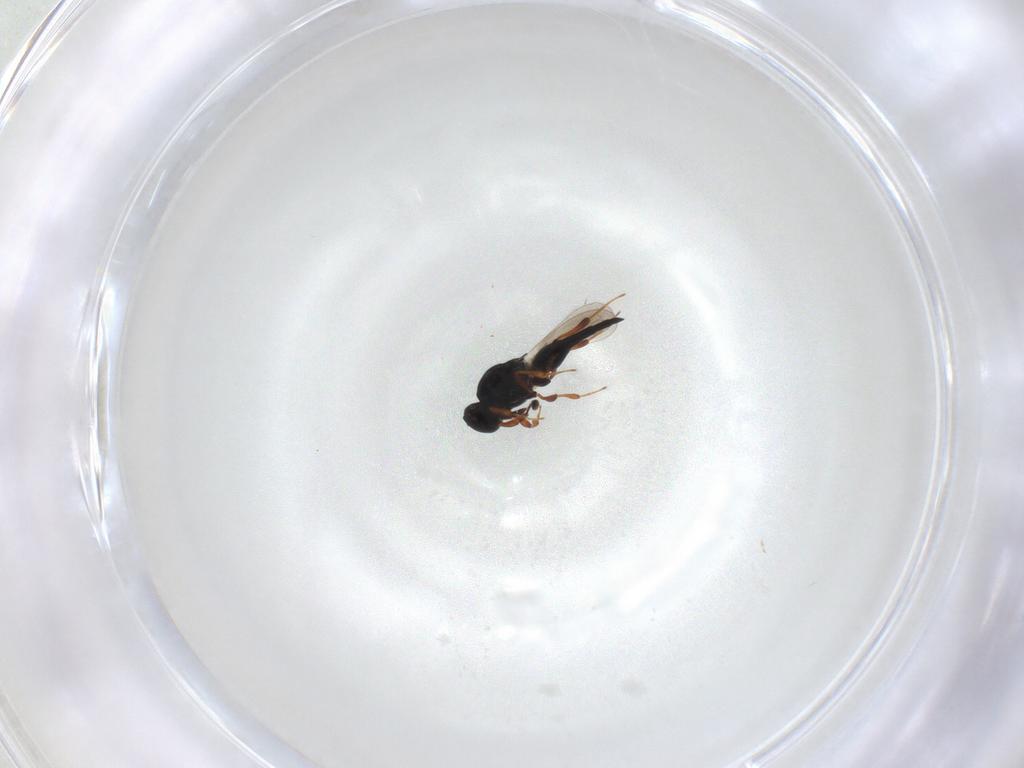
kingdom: Animalia
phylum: Arthropoda
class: Insecta
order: Hymenoptera
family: Platygastridae
